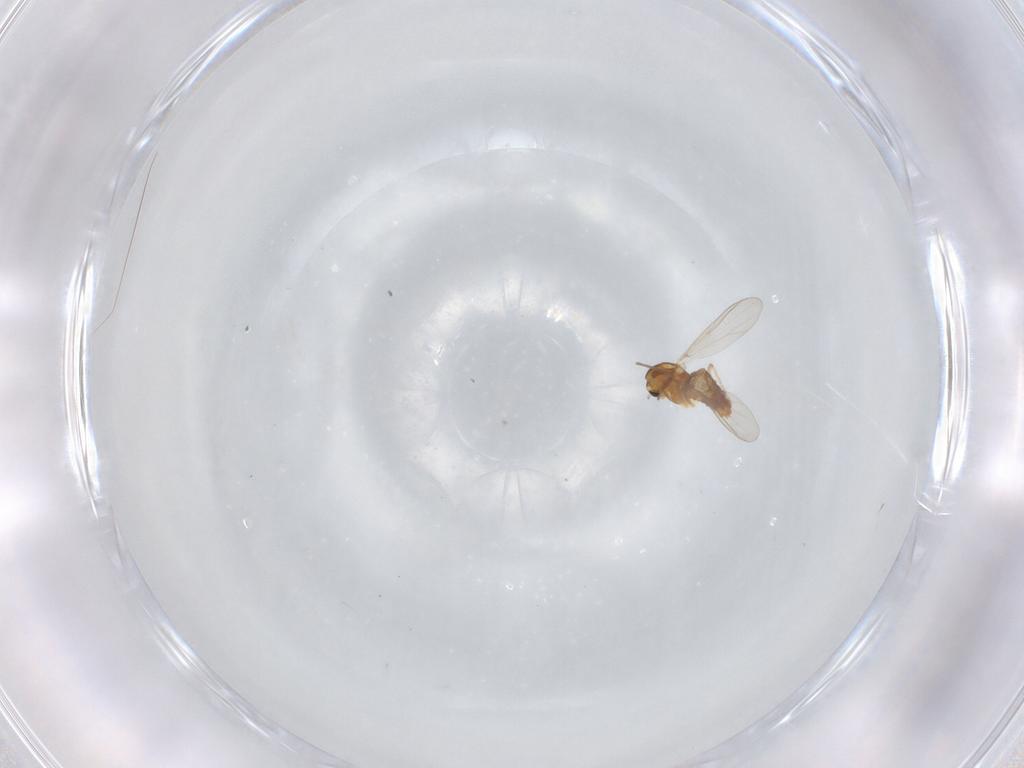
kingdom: Animalia
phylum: Arthropoda
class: Insecta
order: Diptera
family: Chironomidae
